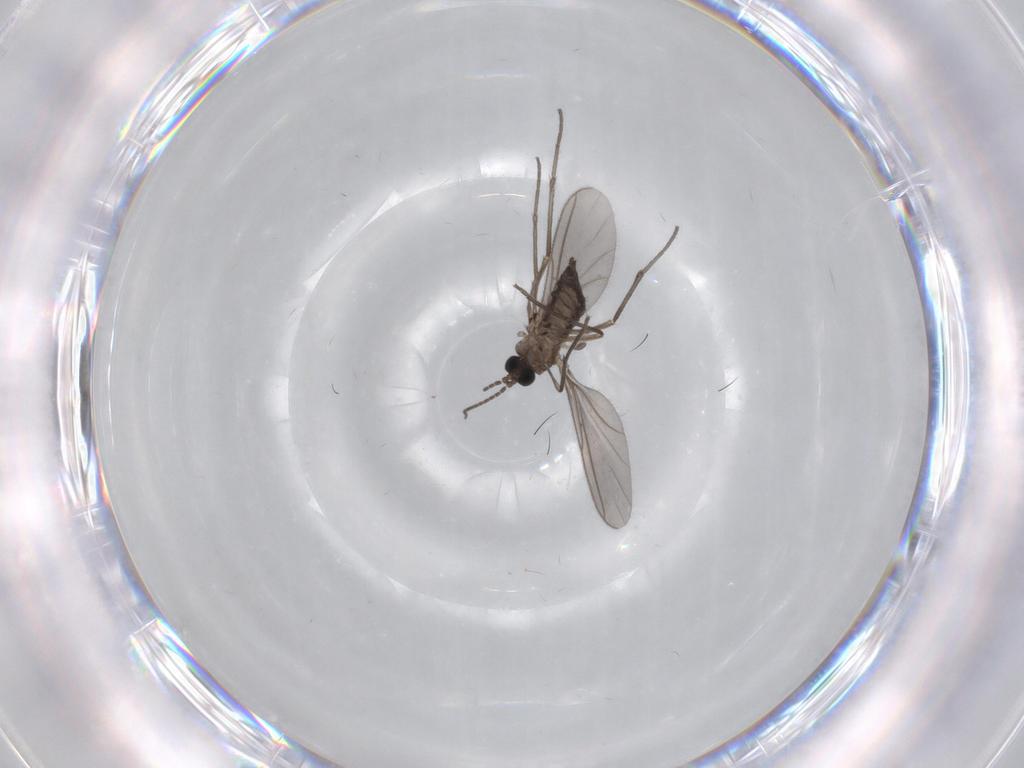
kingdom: Animalia
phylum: Arthropoda
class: Insecta
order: Diptera
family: Sciaridae
